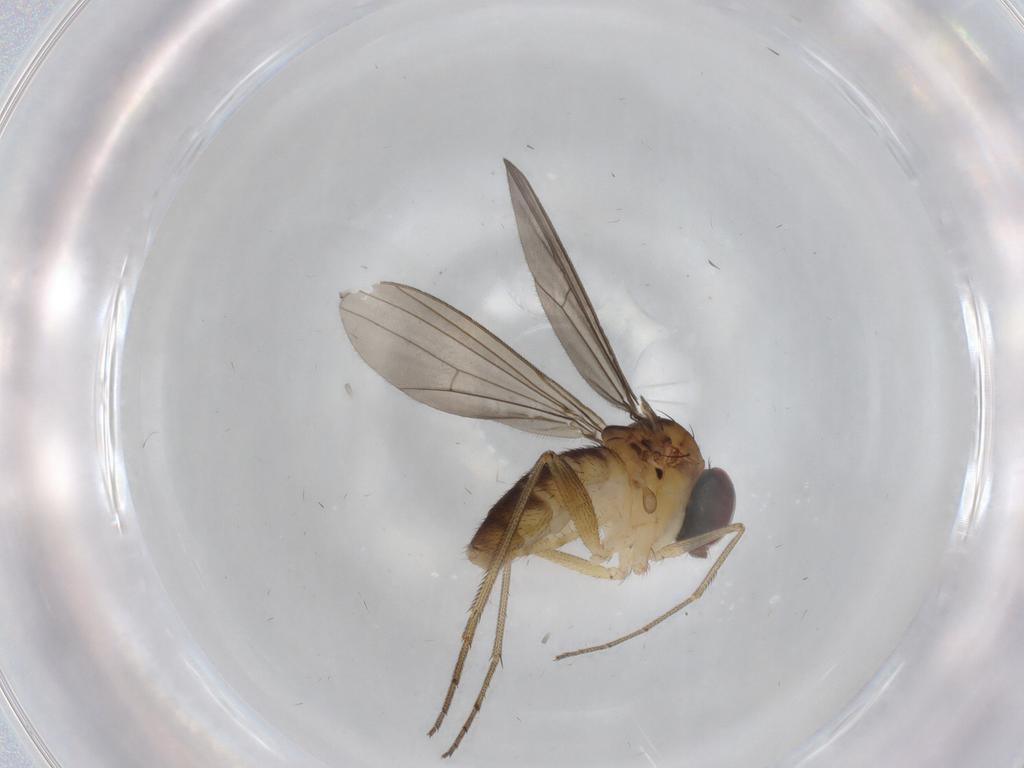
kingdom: Animalia
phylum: Arthropoda
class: Insecta
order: Diptera
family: Dolichopodidae
